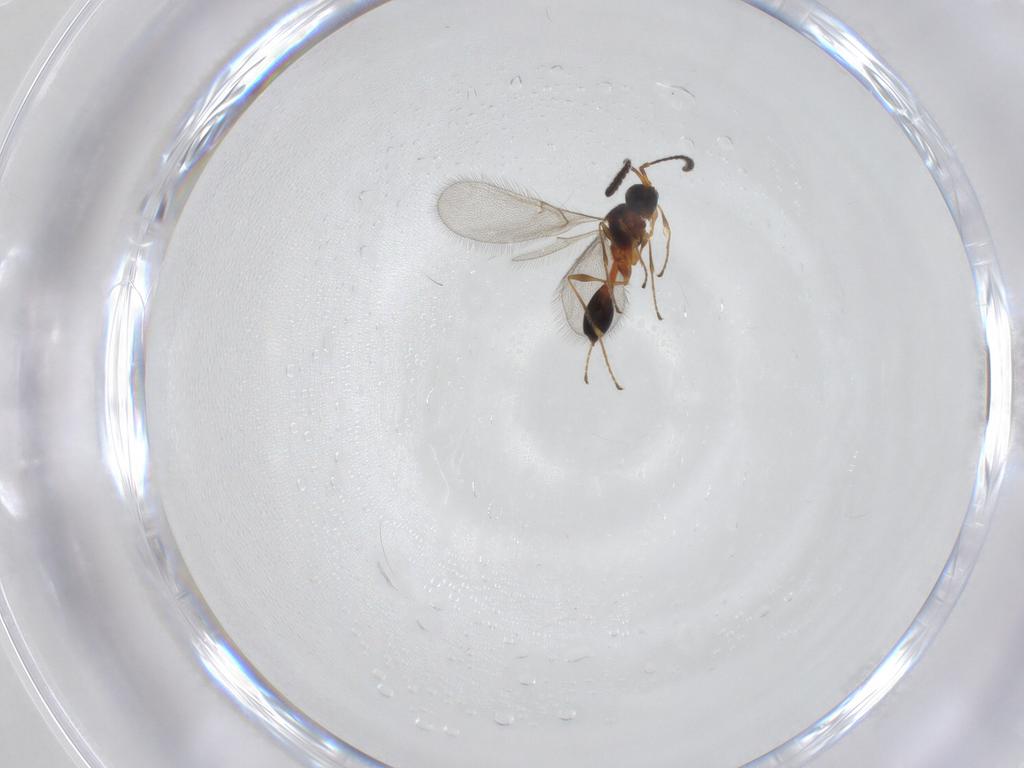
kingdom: Animalia
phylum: Arthropoda
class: Insecta
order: Hymenoptera
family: Diapriidae
